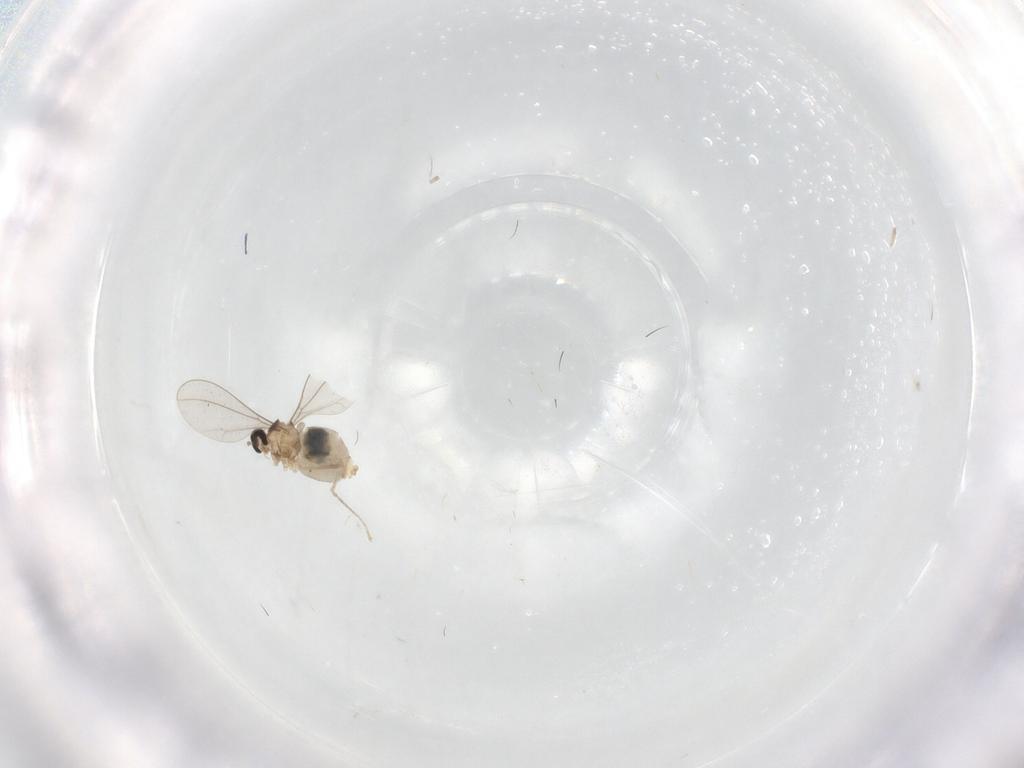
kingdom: Animalia
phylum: Arthropoda
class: Insecta
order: Diptera
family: Cecidomyiidae
